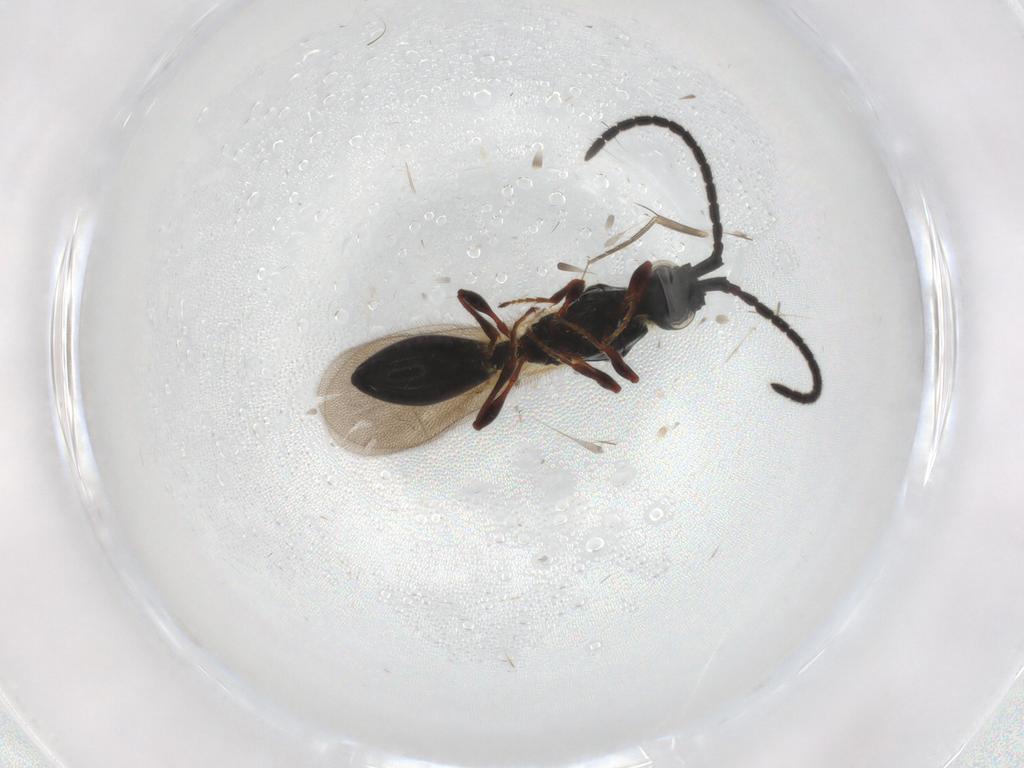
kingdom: Animalia
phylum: Arthropoda
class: Insecta
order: Hymenoptera
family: Diapriidae
